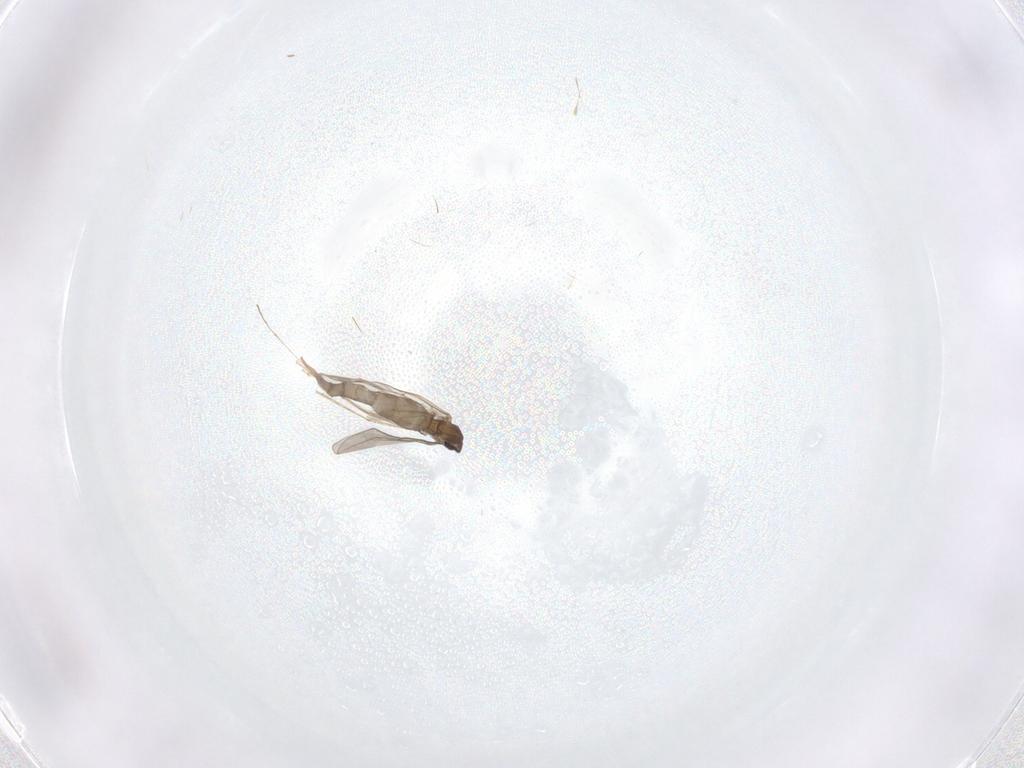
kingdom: Animalia
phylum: Arthropoda
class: Insecta
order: Diptera
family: Cecidomyiidae
